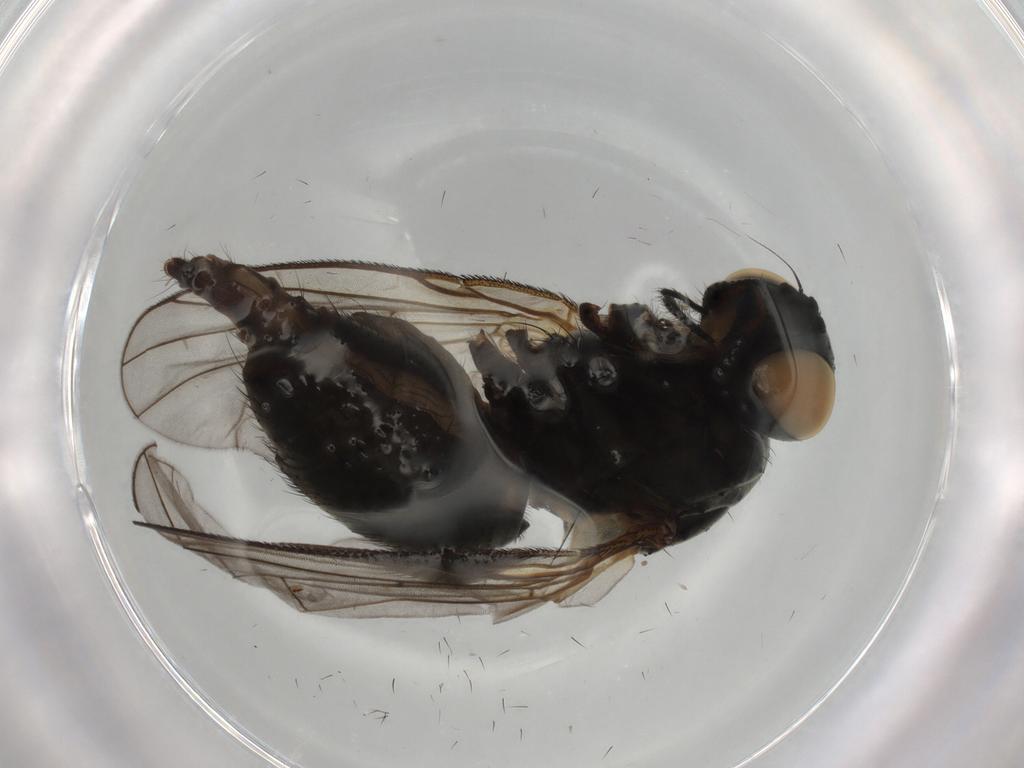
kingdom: Animalia
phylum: Arthropoda
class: Insecta
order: Diptera
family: Muscidae
